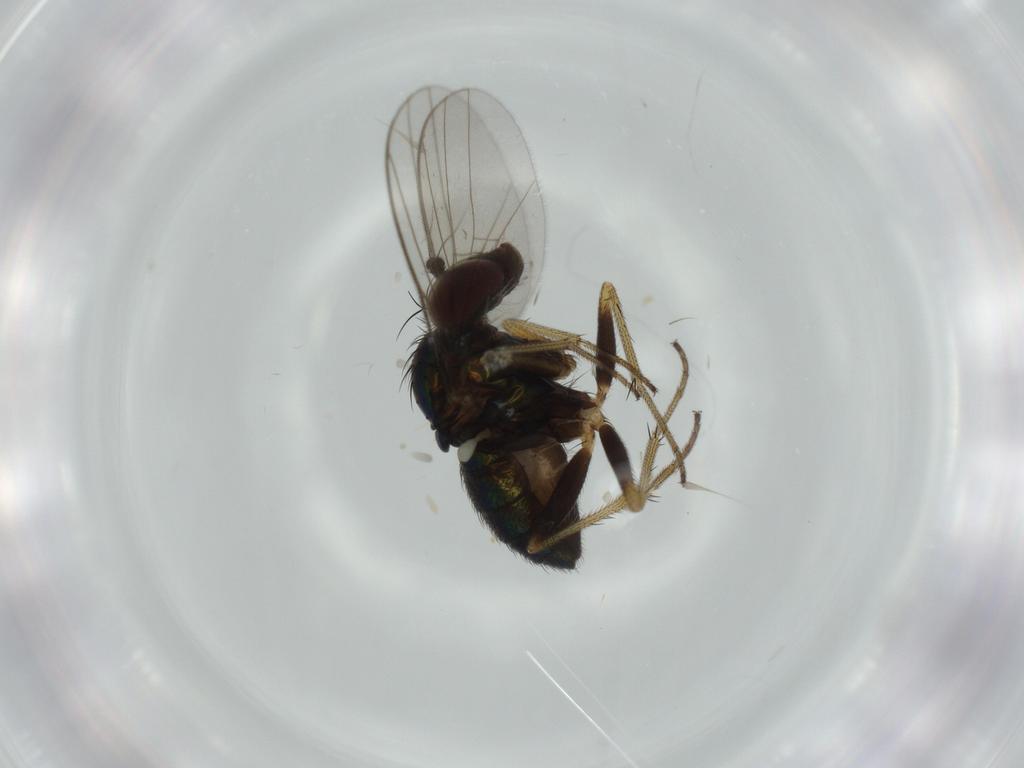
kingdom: Animalia
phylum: Arthropoda
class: Insecta
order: Diptera
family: Dolichopodidae
